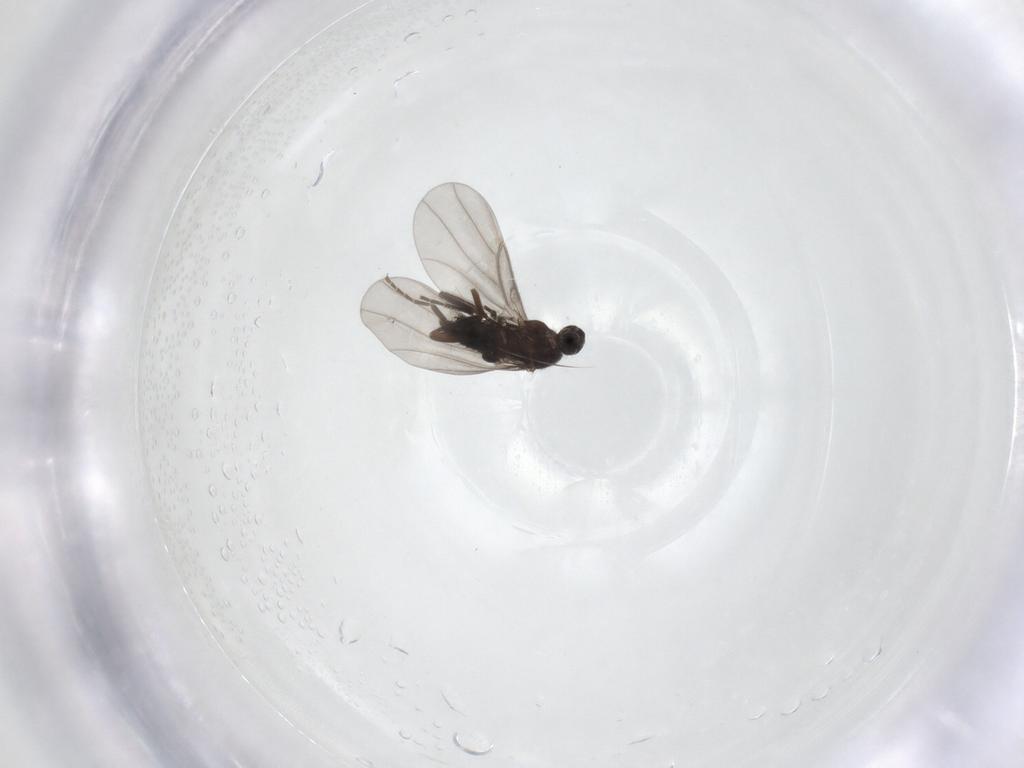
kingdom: Animalia
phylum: Arthropoda
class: Insecta
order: Diptera
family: Cecidomyiidae
